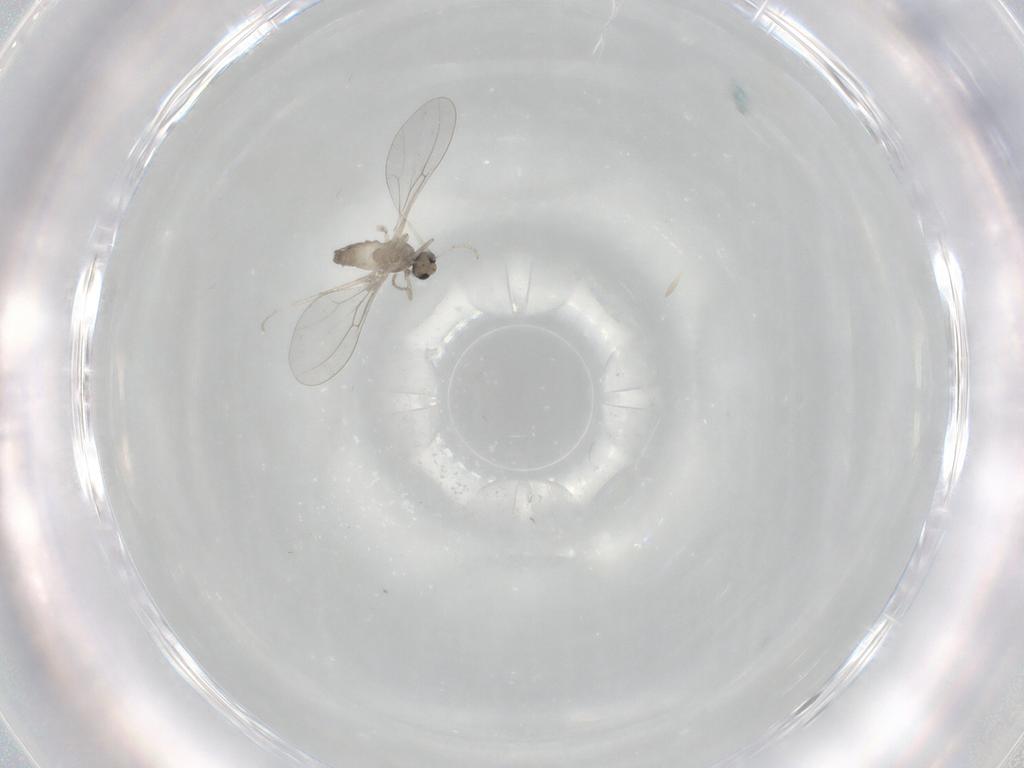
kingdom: Animalia
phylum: Arthropoda
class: Insecta
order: Diptera
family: Cecidomyiidae
